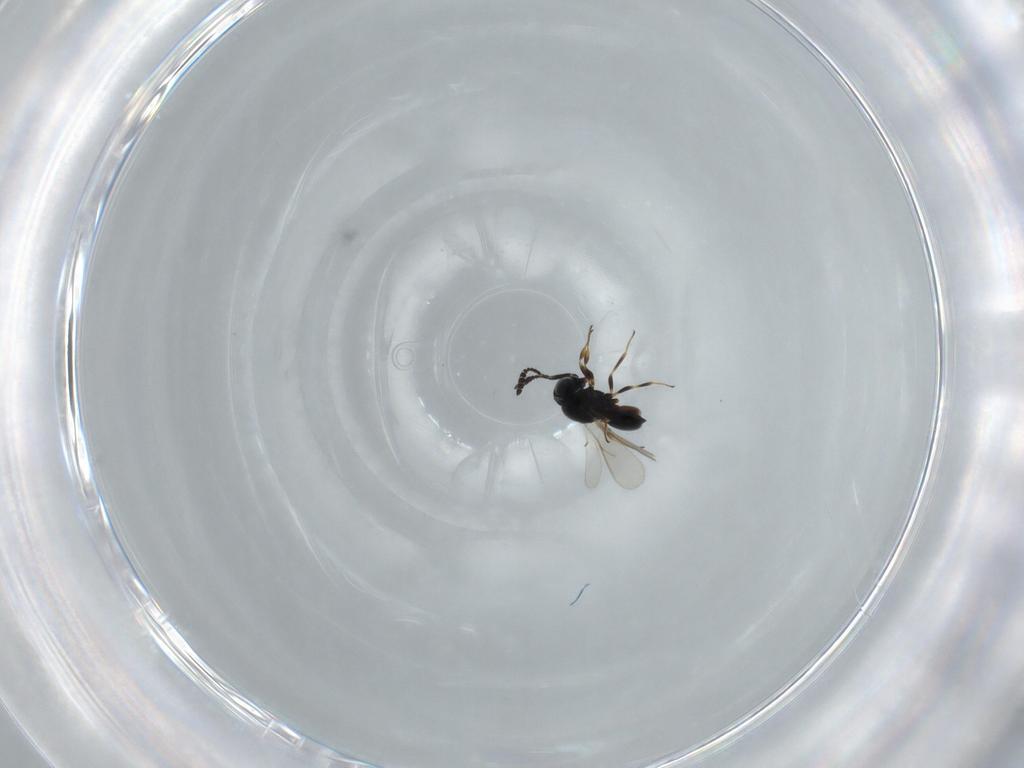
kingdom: Animalia
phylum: Arthropoda
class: Insecta
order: Hymenoptera
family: Scelionidae
